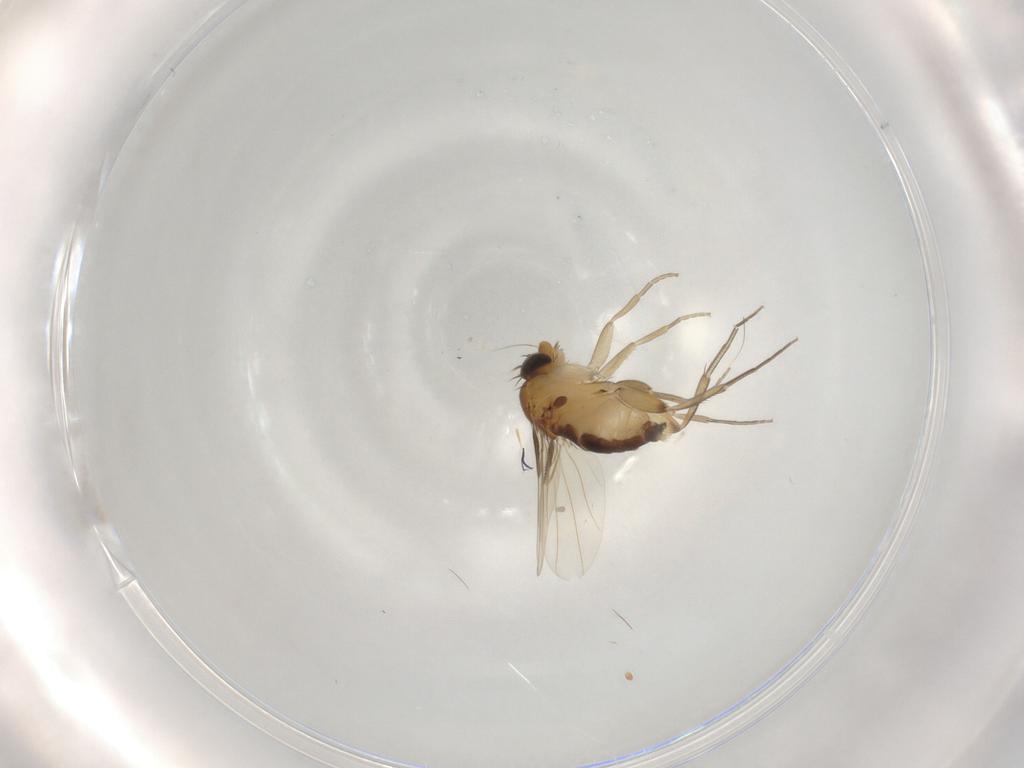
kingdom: Animalia
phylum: Arthropoda
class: Insecta
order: Diptera
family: Phoridae
